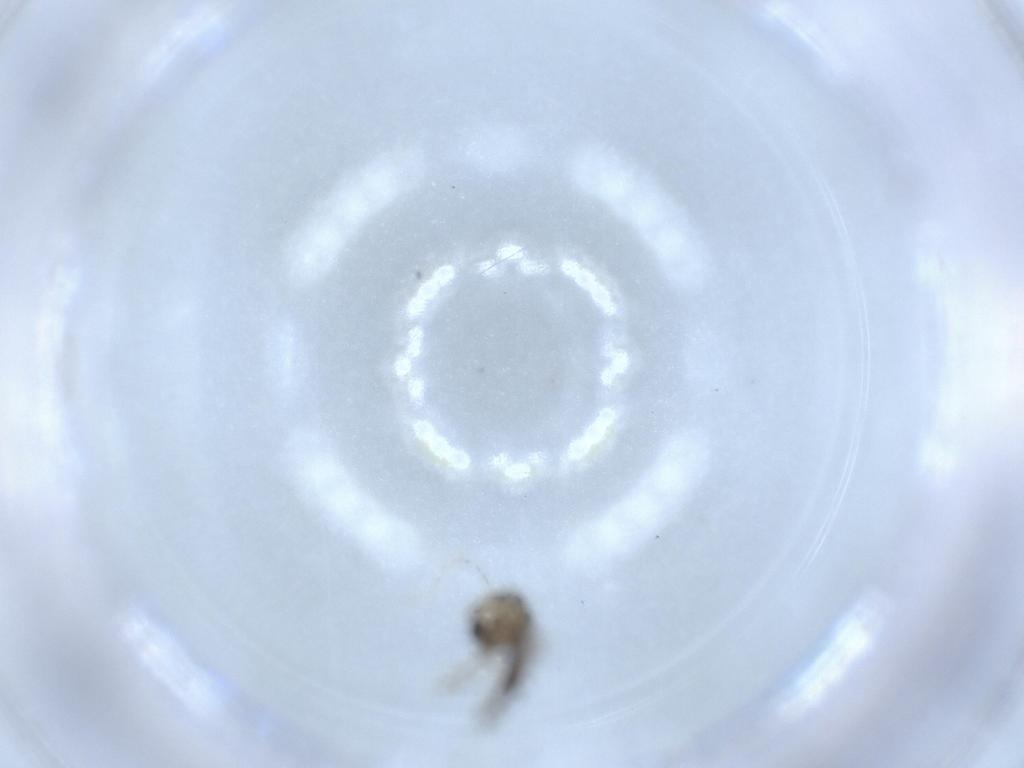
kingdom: Animalia
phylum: Arthropoda
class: Insecta
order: Diptera
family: Chironomidae
